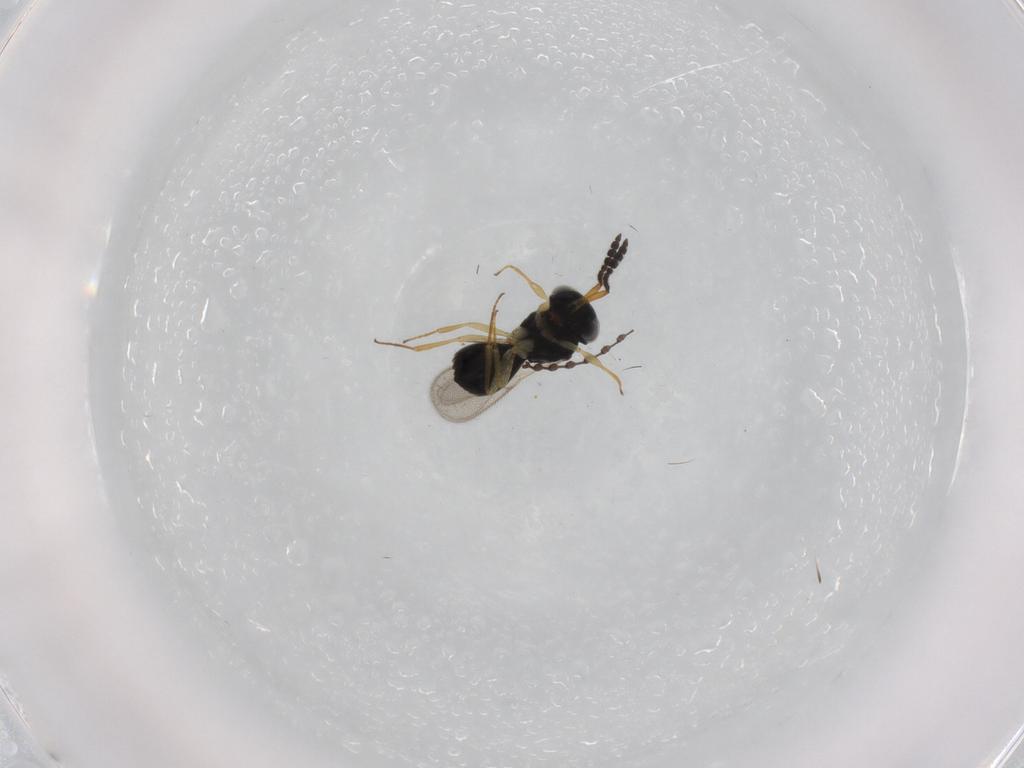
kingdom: Animalia
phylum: Arthropoda
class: Insecta
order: Hymenoptera
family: Scelionidae
